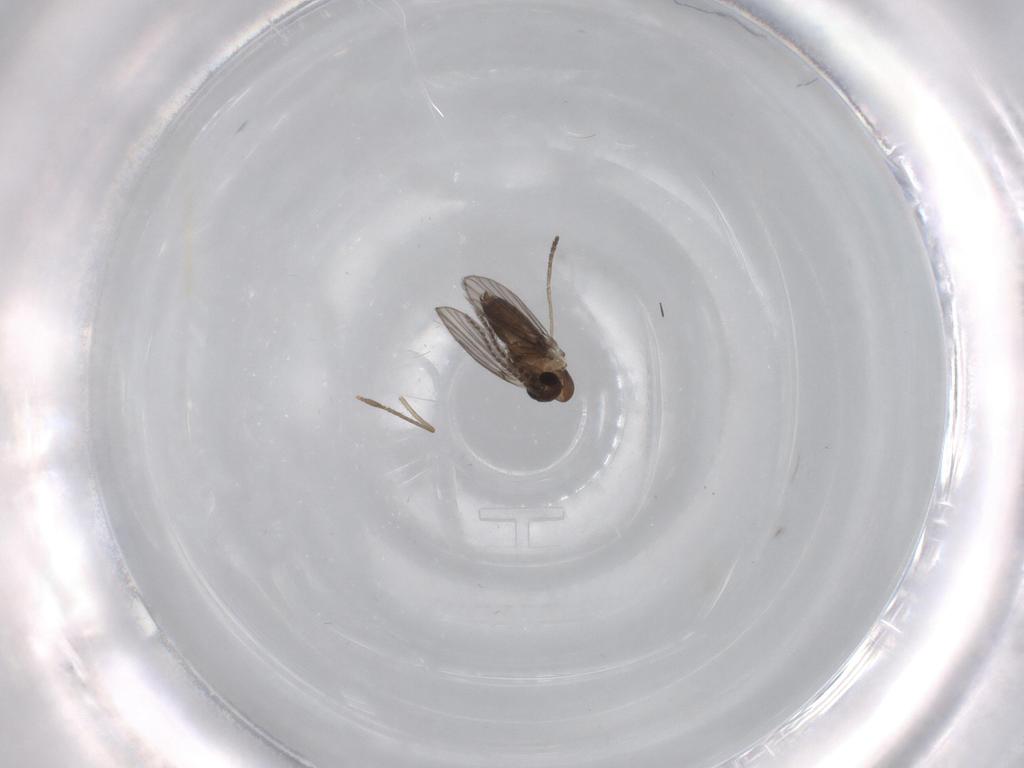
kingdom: Animalia
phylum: Arthropoda
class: Insecta
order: Diptera
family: Psychodidae
